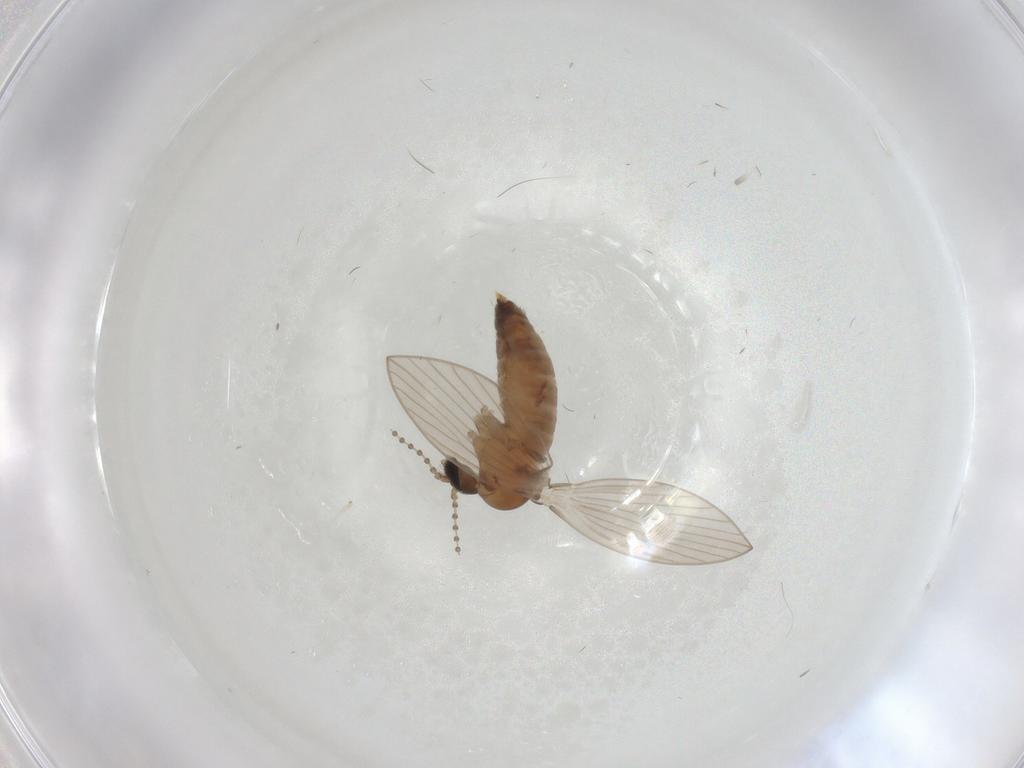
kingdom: Animalia
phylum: Arthropoda
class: Insecta
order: Diptera
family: Psychodidae
